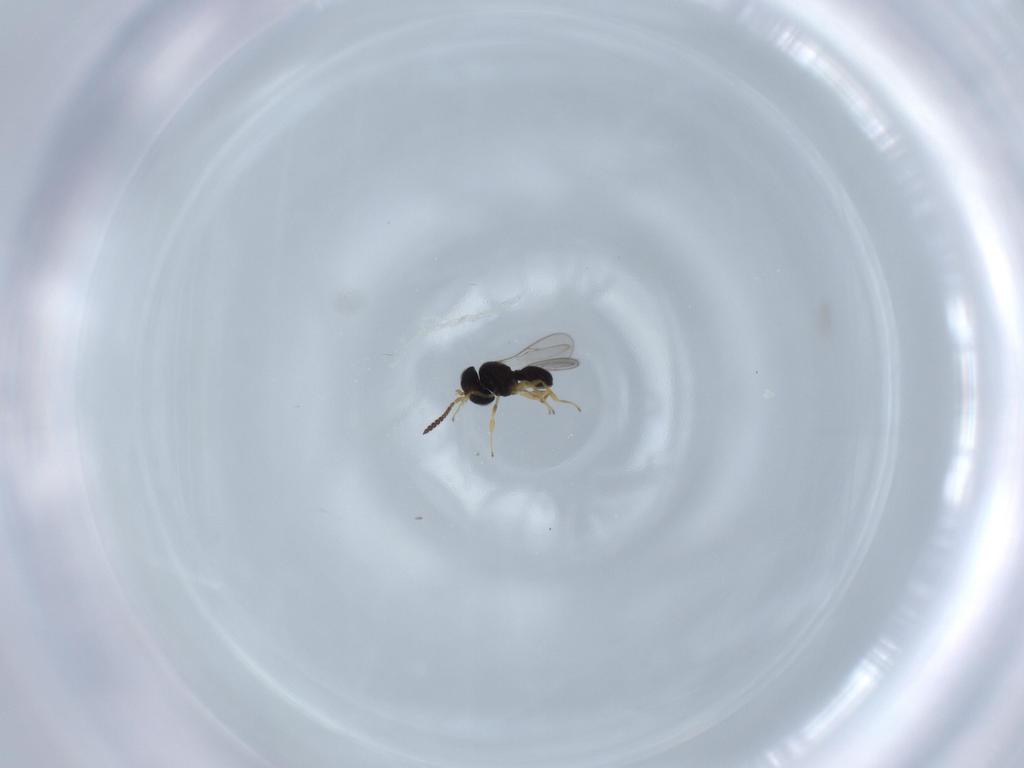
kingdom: Animalia
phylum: Arthropoda
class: Insecta
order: Hymenoptera
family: Scelionidae
